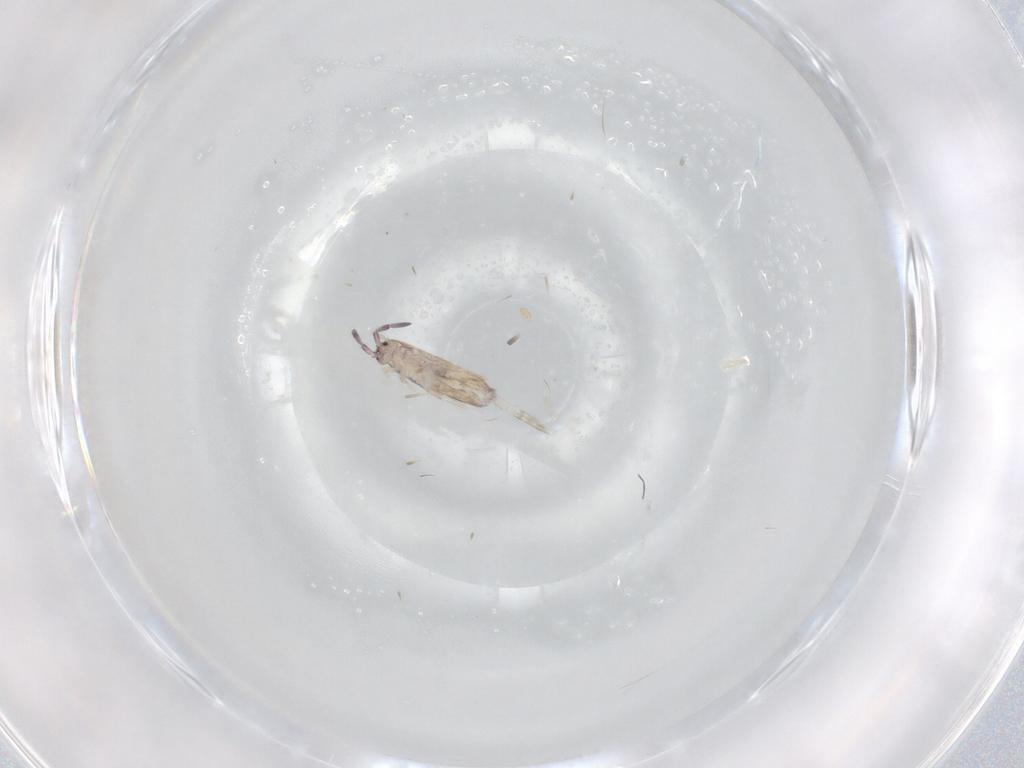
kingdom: Animalia
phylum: Arthropoda
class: Collembola
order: Entomobryomorpha
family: Entomobryidae
